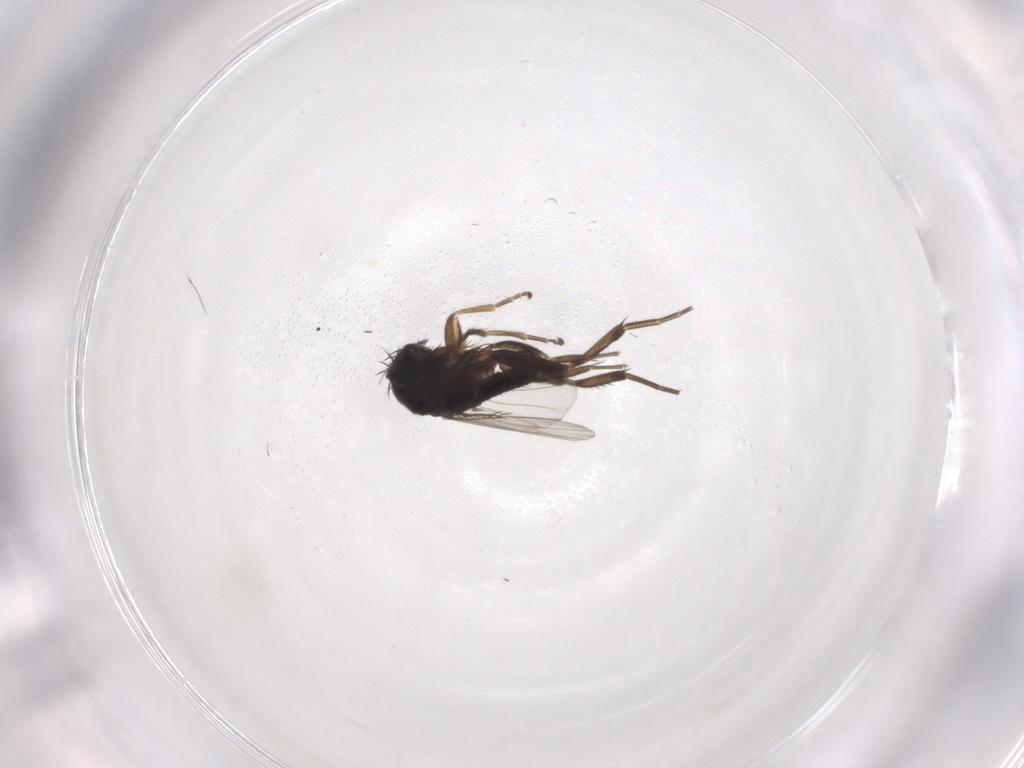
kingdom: Animalia
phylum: Arthropoda
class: Insecta
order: Diptera
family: Phoridae
